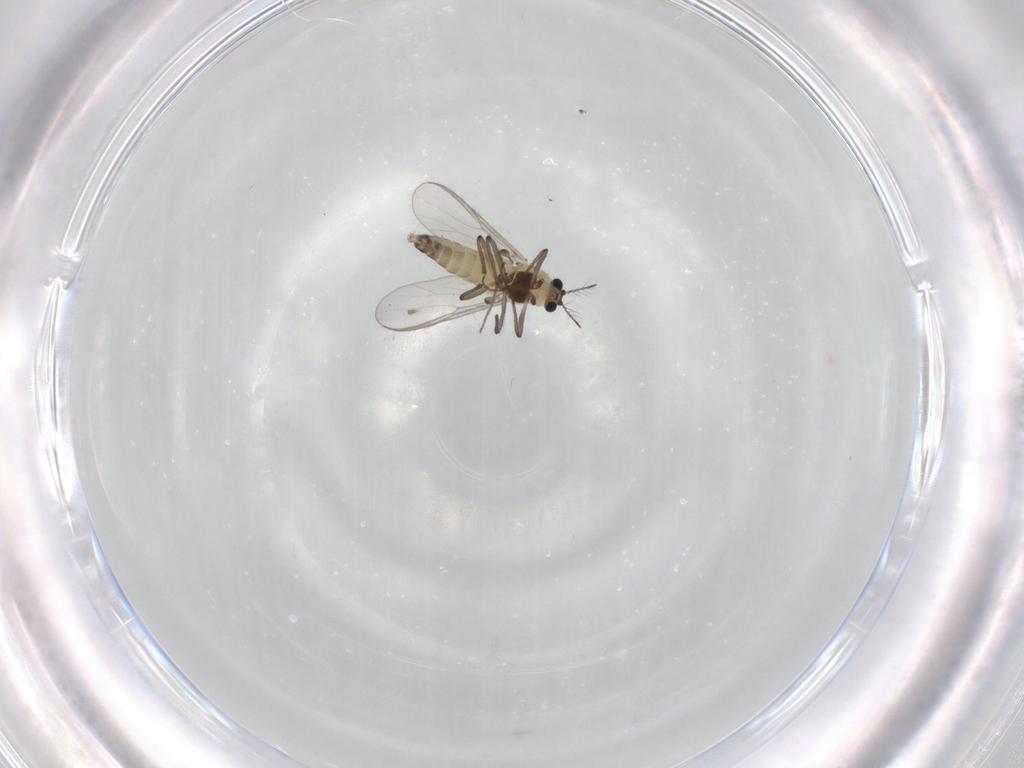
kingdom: Animalia
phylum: Arthropoda
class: Insecta
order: Diptera
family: Chironomidae
